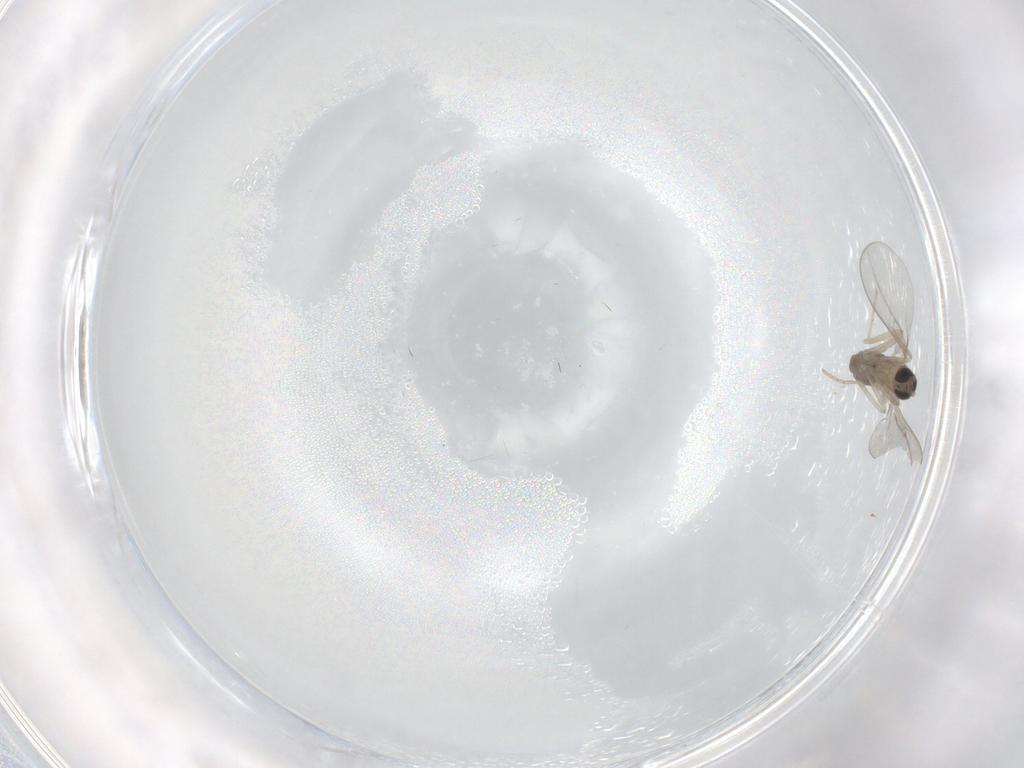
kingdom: Animalia
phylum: Arthropoda
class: Insecta
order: Diptera
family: Cecidomyiidae
